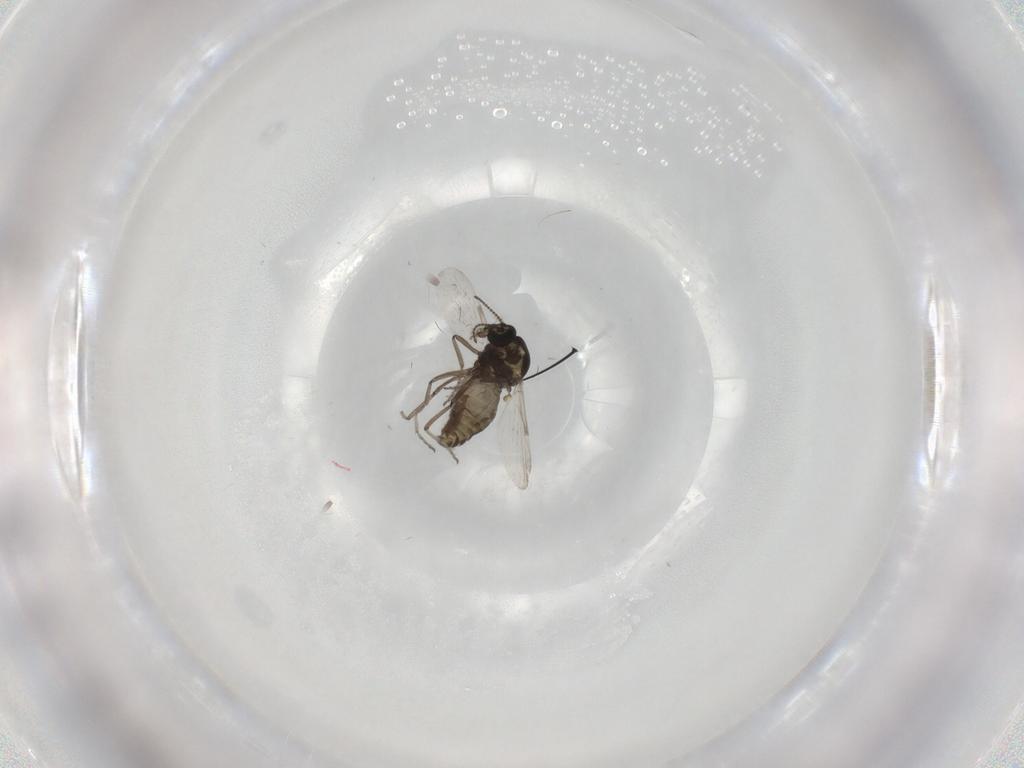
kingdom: Animalia
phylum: Arthropoda
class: Insecta
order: Diptera
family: Ceratopogonidae
